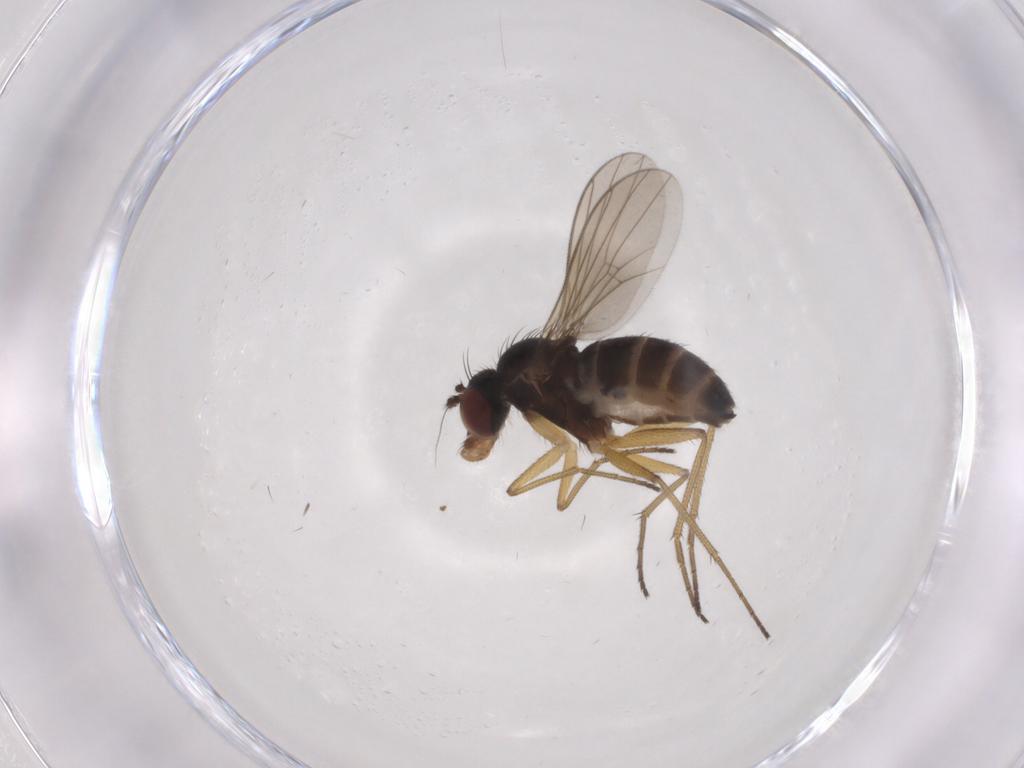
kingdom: Animalia
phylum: Arthropoda
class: Insecta
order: Diptera
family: Dolichopodidae
